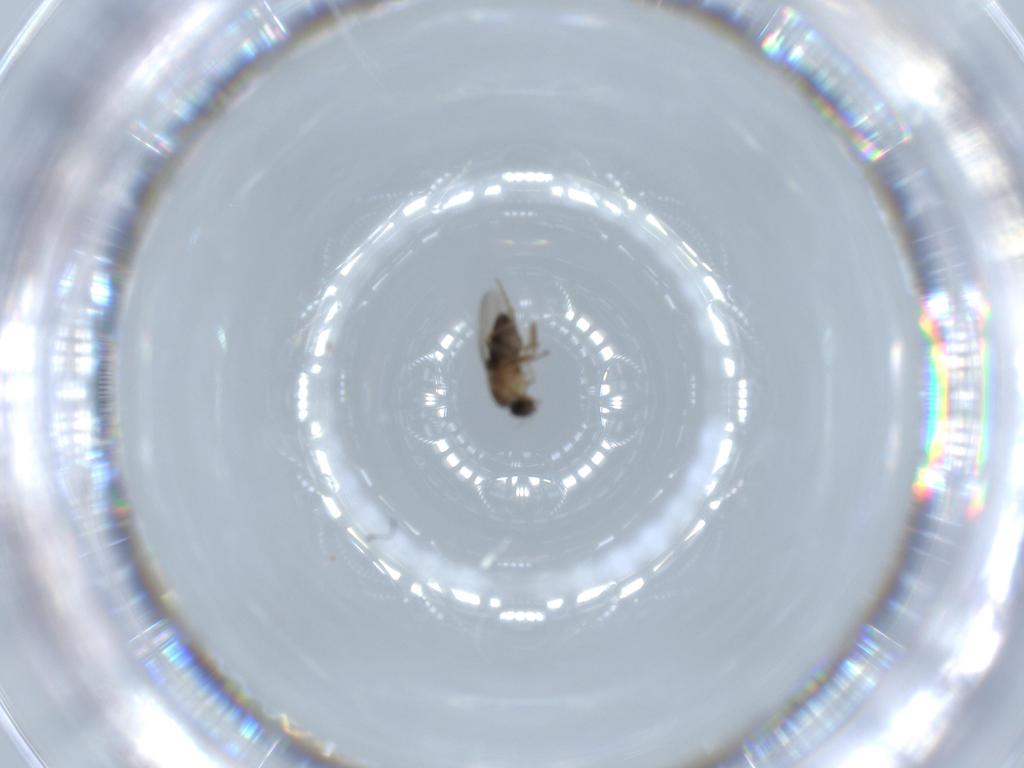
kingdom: Animalia
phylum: Arthropoda
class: Insecta
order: Diptera
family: Phoridae
